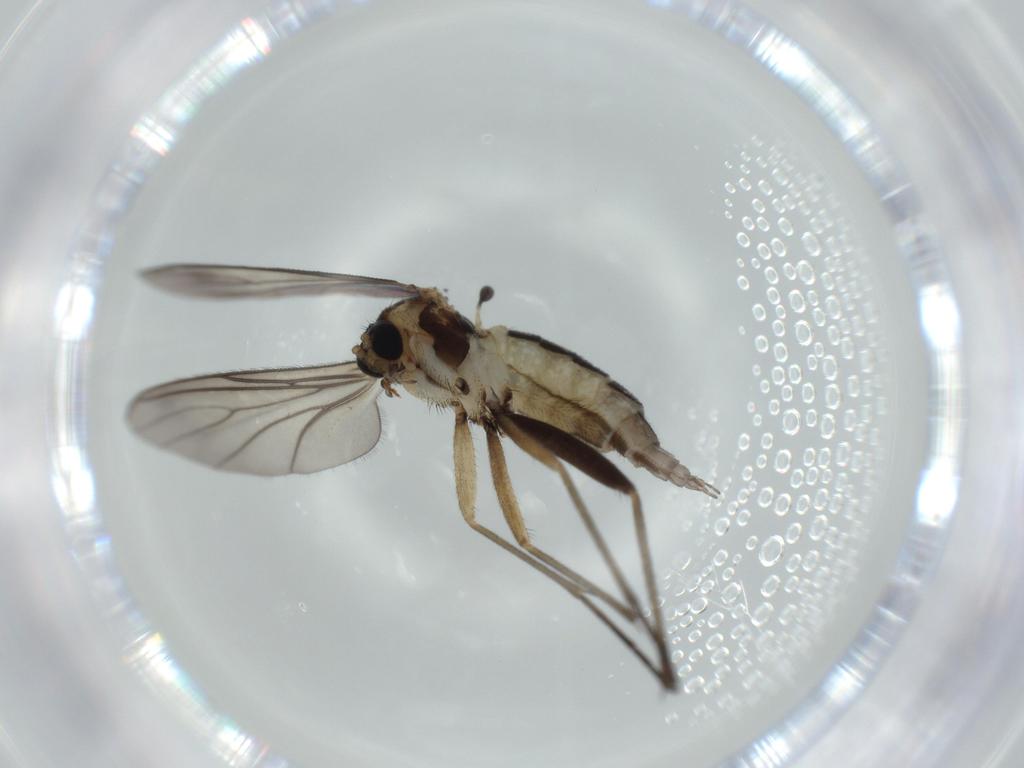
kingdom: Animalia
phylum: Arthropoda
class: Insecta
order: Diptera
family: Sciaridae
